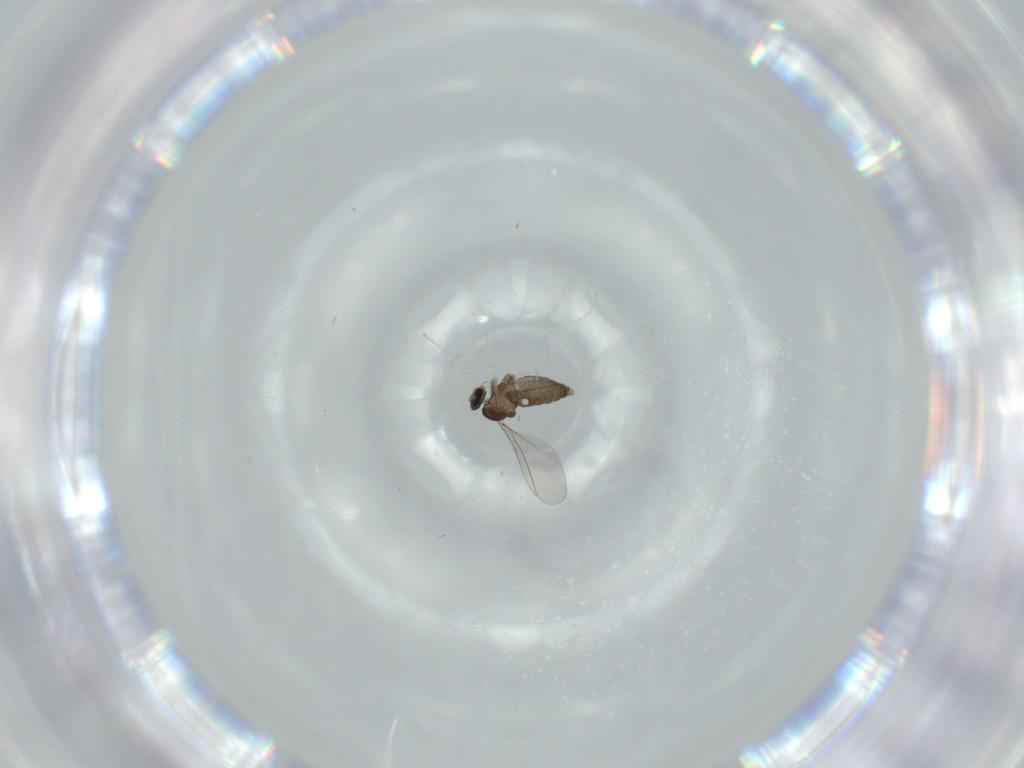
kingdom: Animalia
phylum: Arthropoda
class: Insecta
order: Diptera
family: Cecidomyiidae
